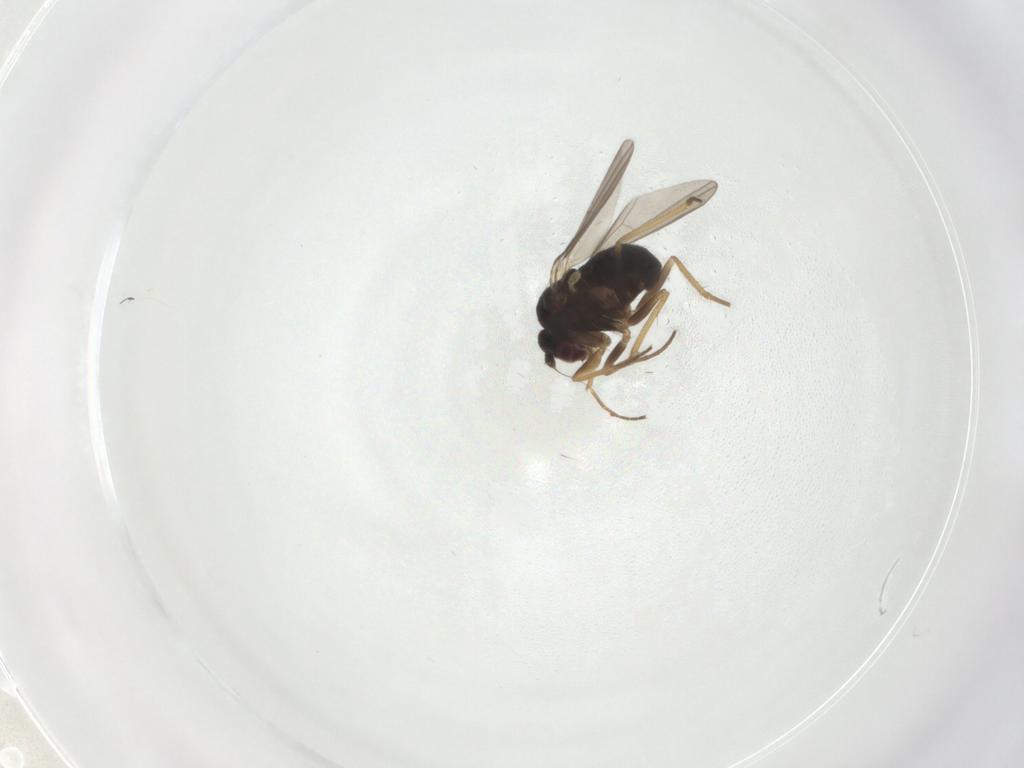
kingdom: Animalia
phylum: Arthropoda
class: Insecta
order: Diptera
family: Dolichopodidae
